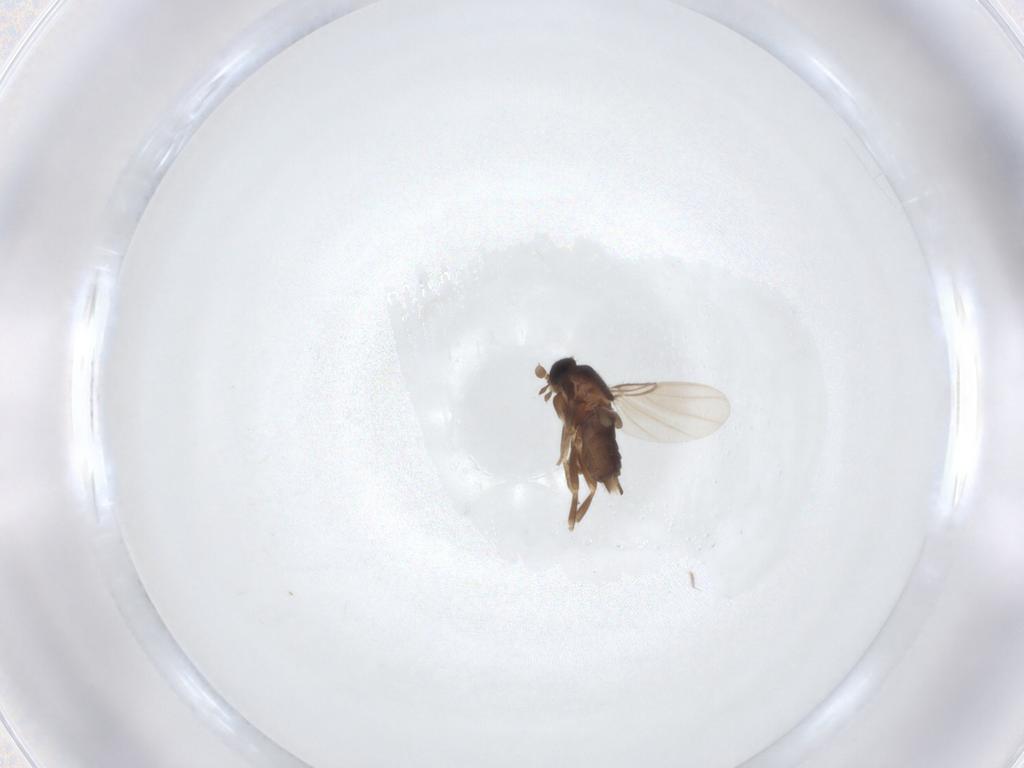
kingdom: Animalia
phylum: Arthropoda
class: Insecta
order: Diptera
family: Phoridae
